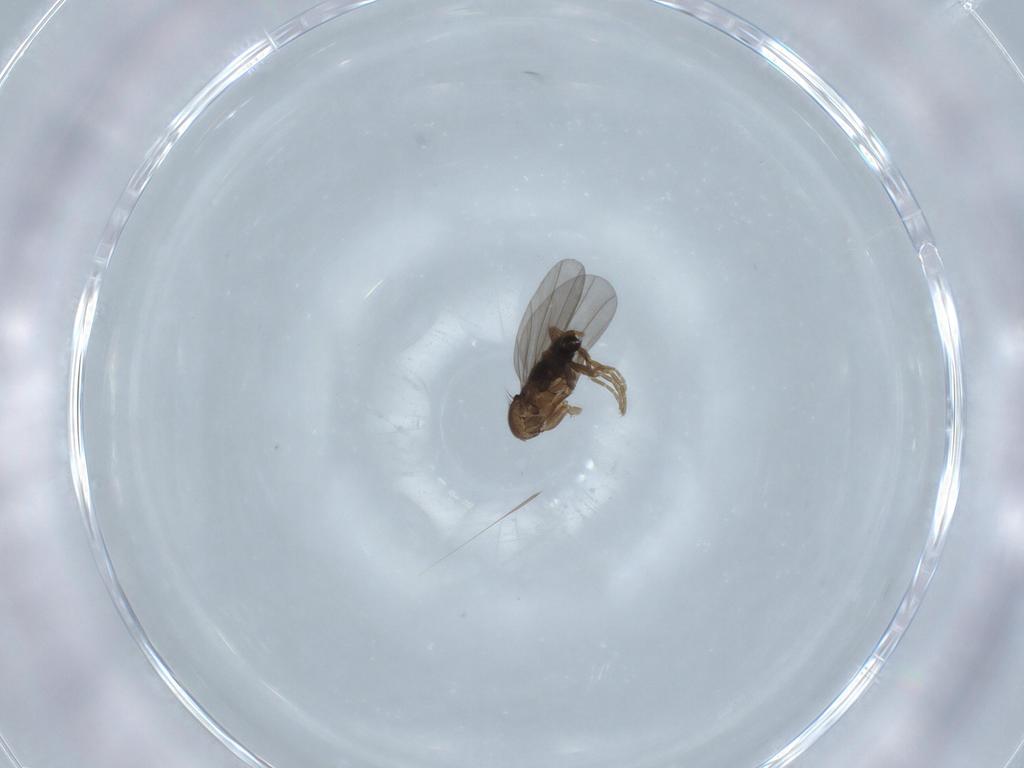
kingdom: Animalia
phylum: Arthropoda
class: Insecta
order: Diptera
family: Phoridae
